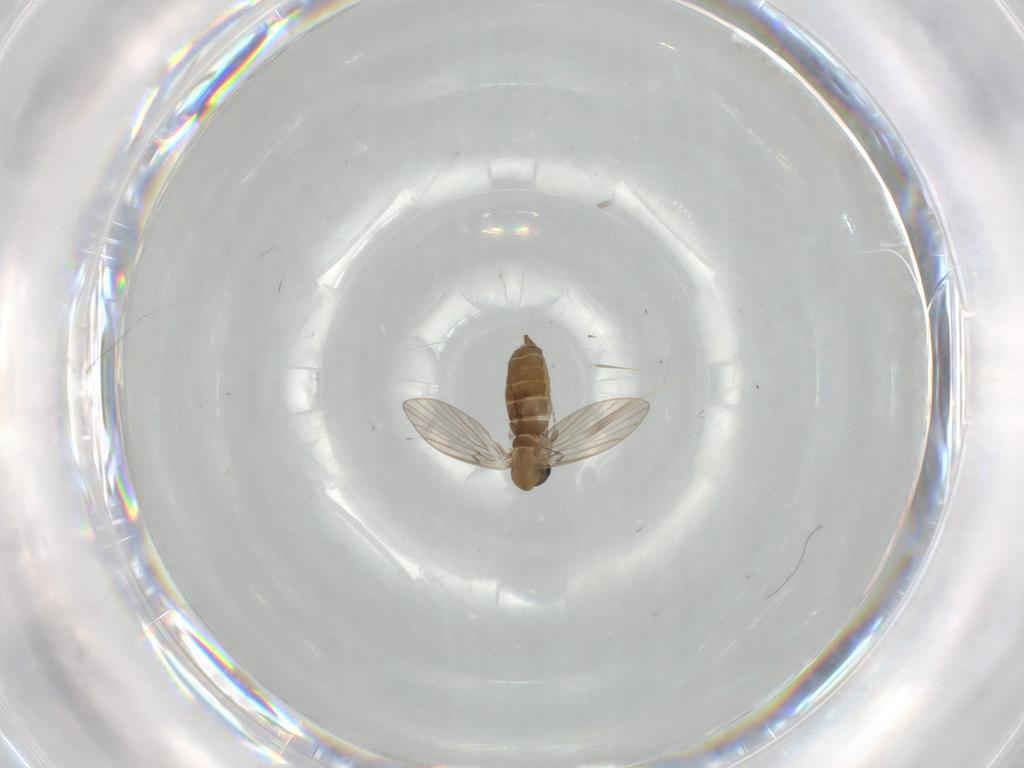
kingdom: Animalia
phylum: Arthropoda
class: Insecta
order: Diptera
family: Psychodidae
